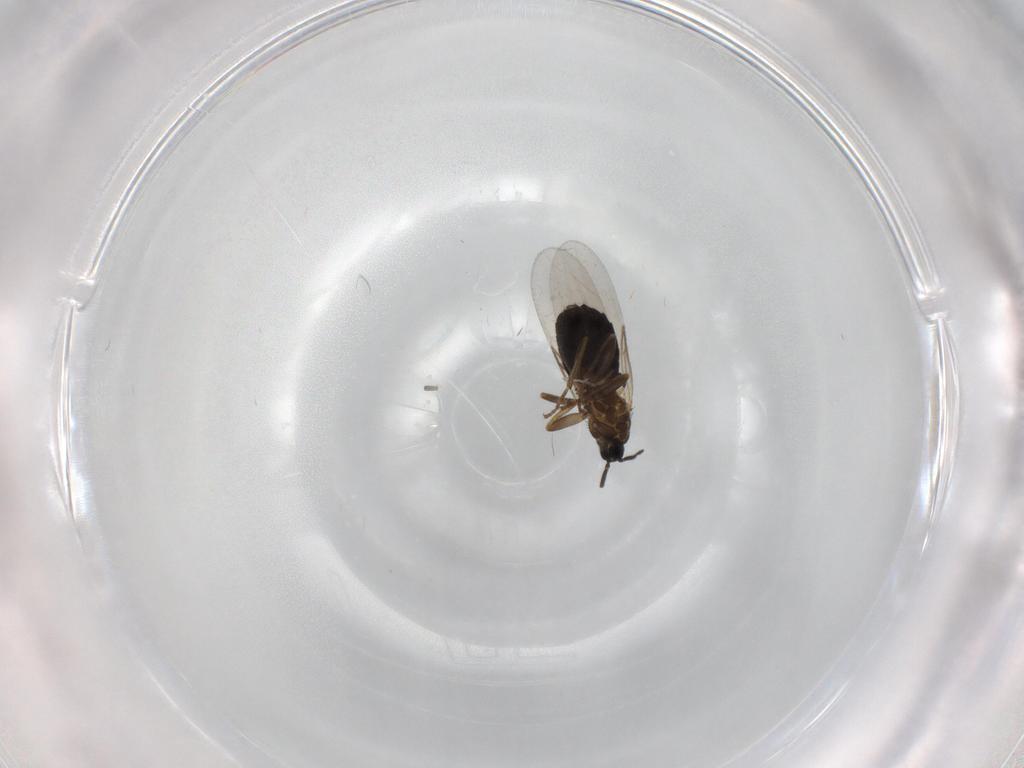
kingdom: Animalia
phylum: Arthropoda
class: Insecta
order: Diptera
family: Scatopsidae
